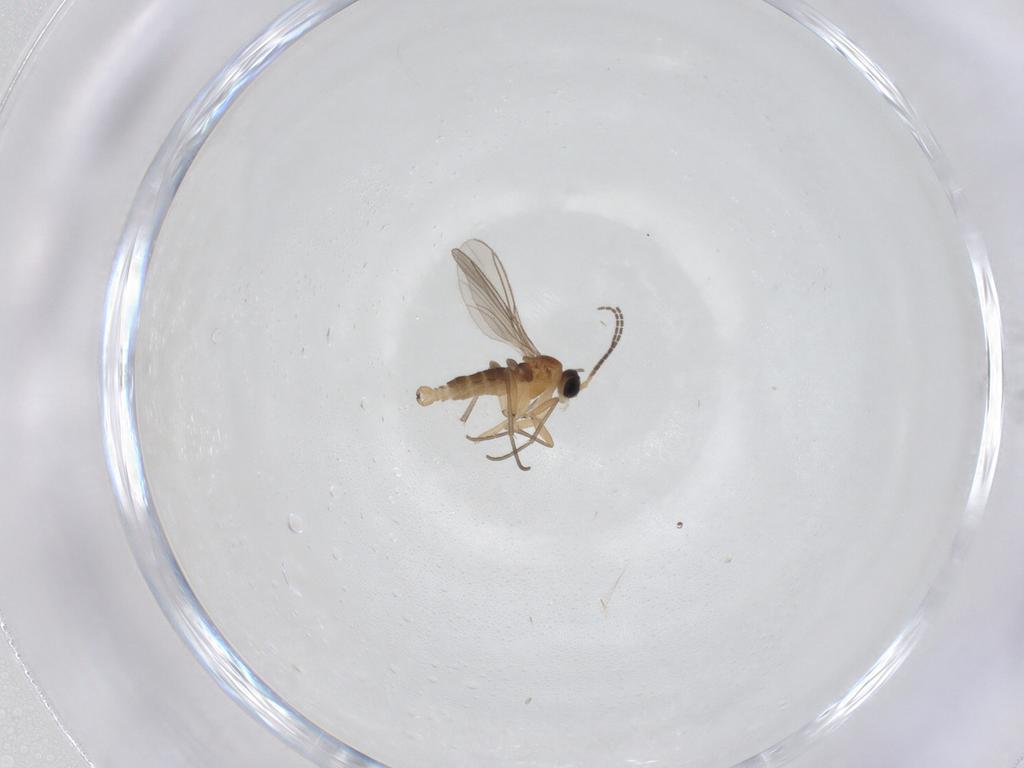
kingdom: Animalia
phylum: Arthropoda
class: Insecta
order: Diptera
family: Sciaridae
